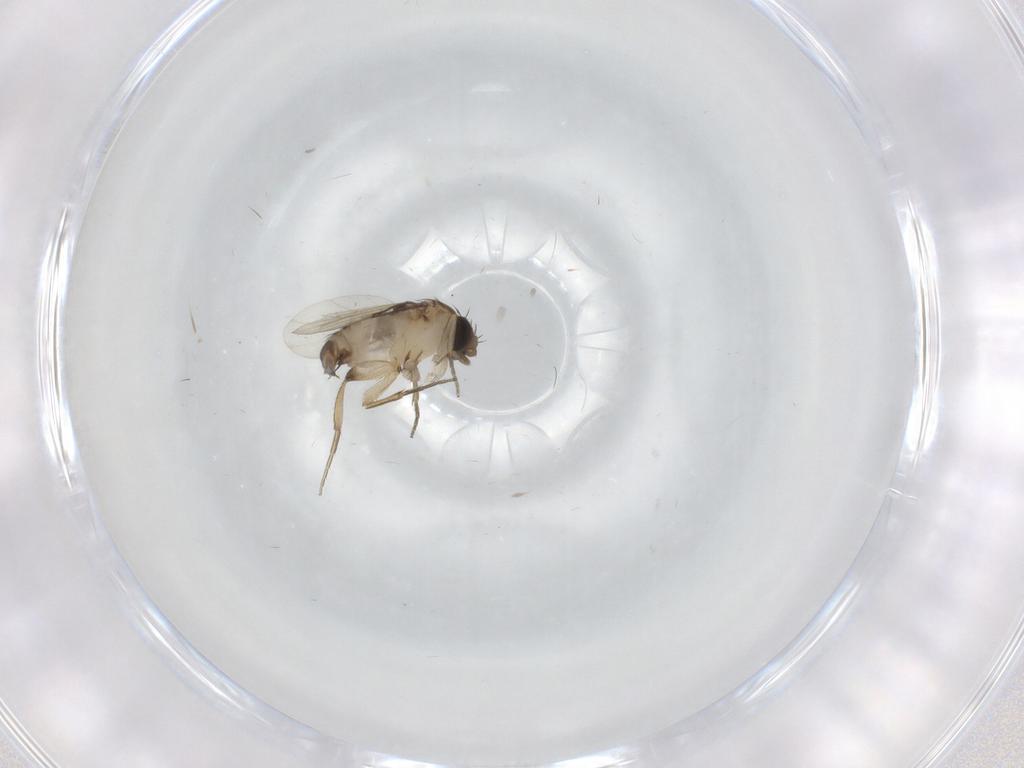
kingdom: Animalia
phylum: Arthropoda
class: Insecta
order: Diptera
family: Phoridae
